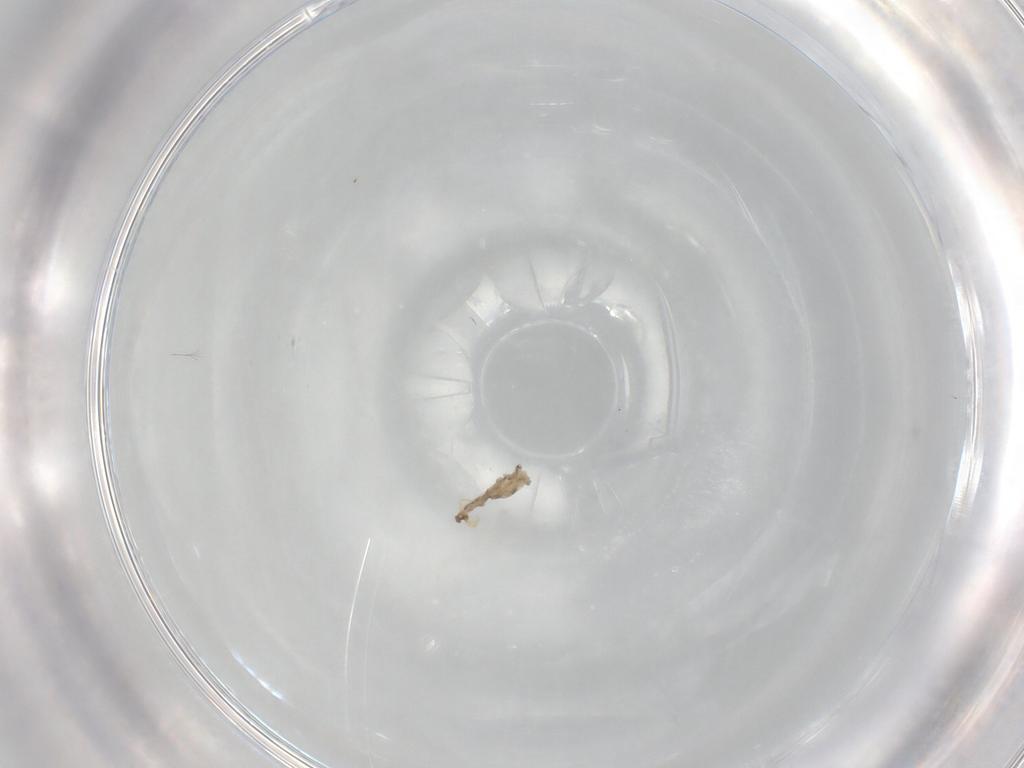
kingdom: Animalia
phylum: Arthropoda
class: Insecta
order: Diptera
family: Cecidomyiidae
